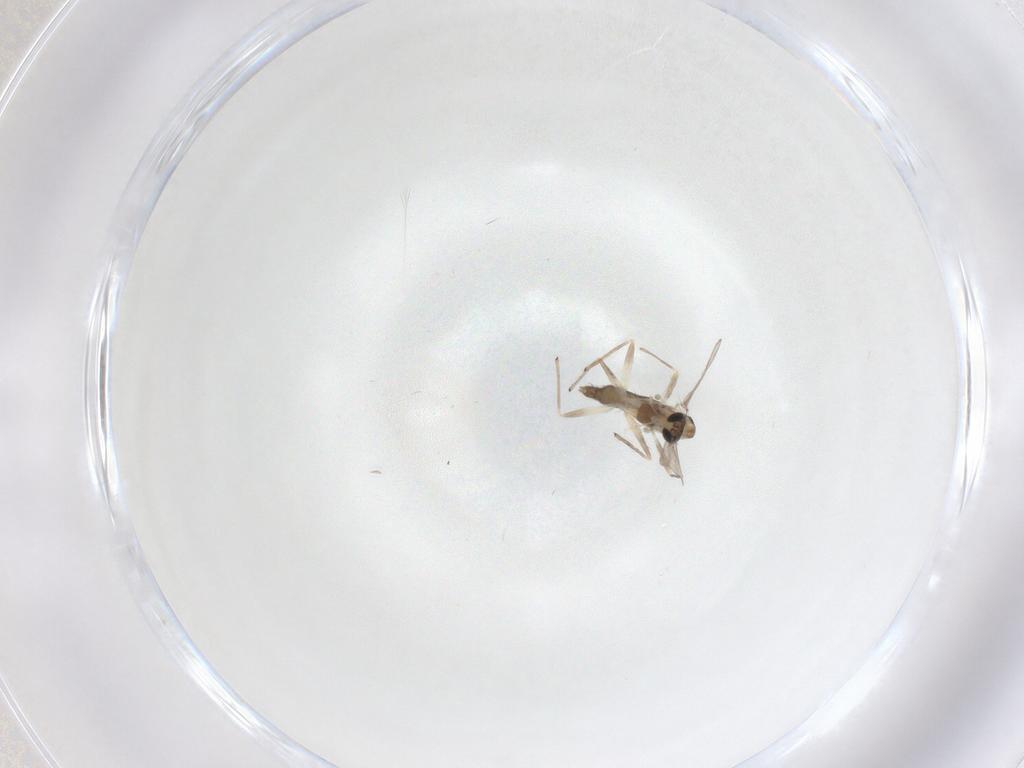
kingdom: Animalia
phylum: Arthropoda
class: Insecta
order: Diptera
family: Chironomidae
